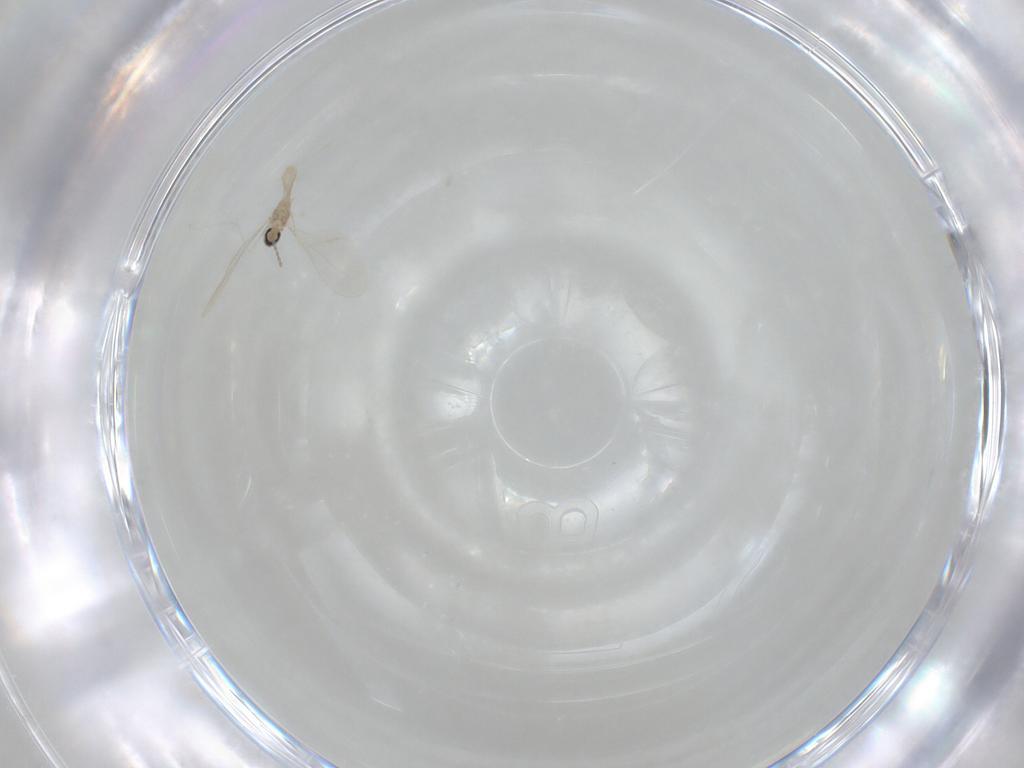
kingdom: Animalia
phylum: Arthropoda
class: Insecta
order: Diptera
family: Cecidomyiidae
